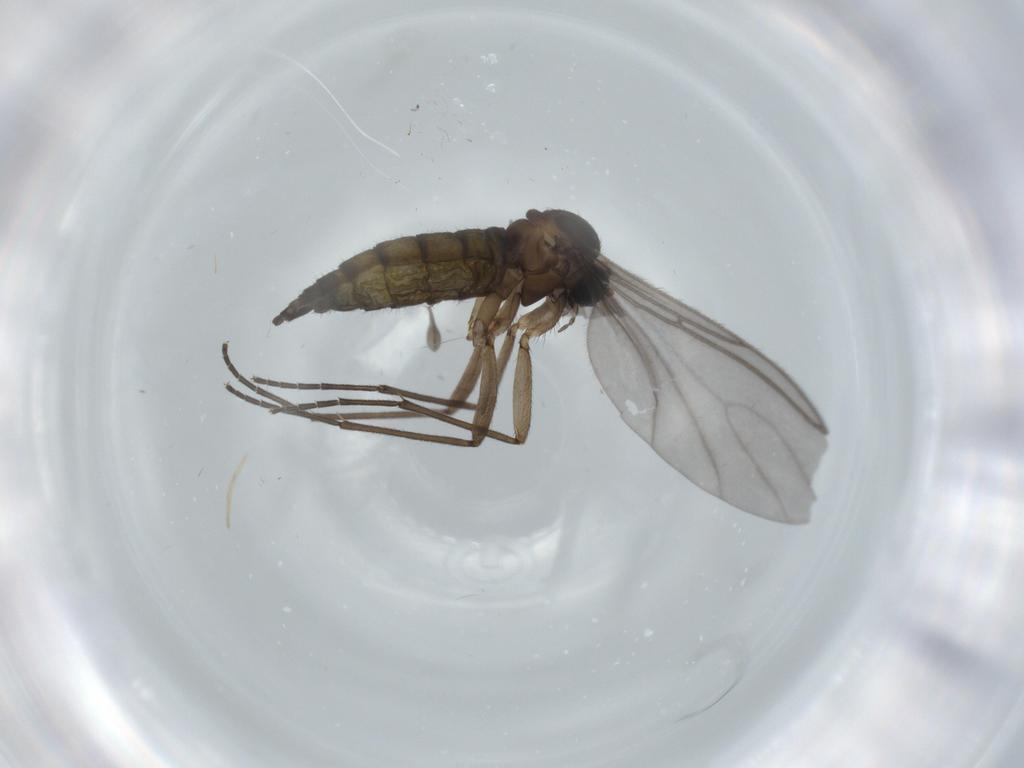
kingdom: Animalia
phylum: Arthropoda
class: Insecta
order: Diptera
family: Sciaridae
